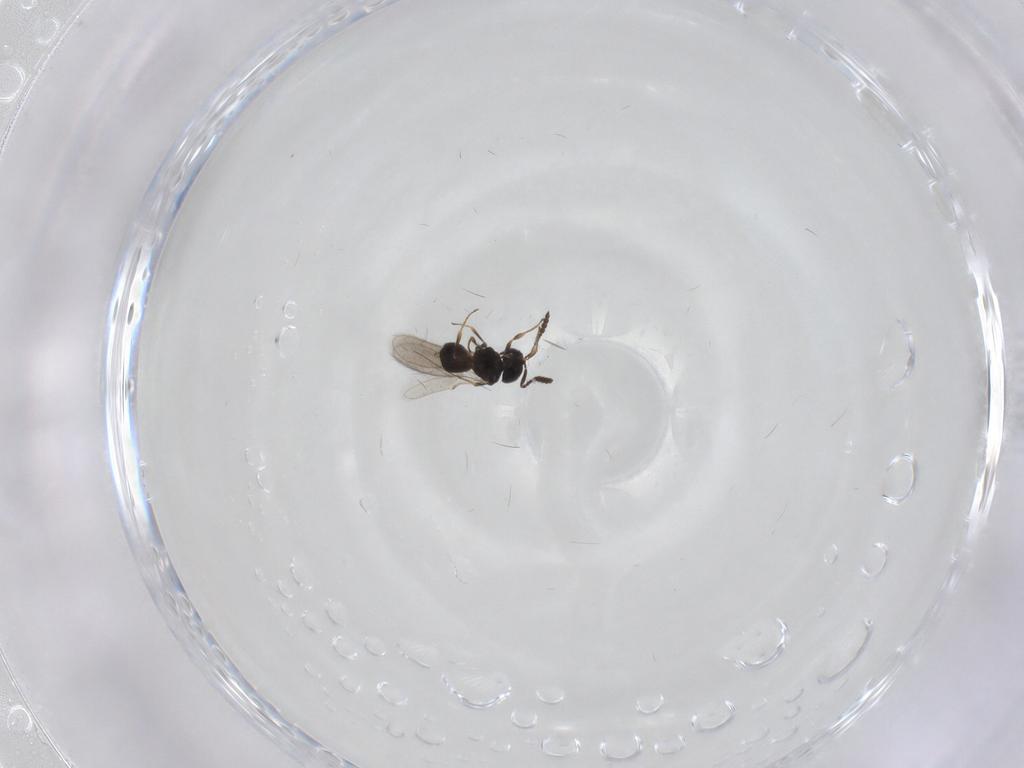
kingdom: Animalia
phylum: Arthropoda
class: Insecta
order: Hymenoptera
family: Scelionidae
